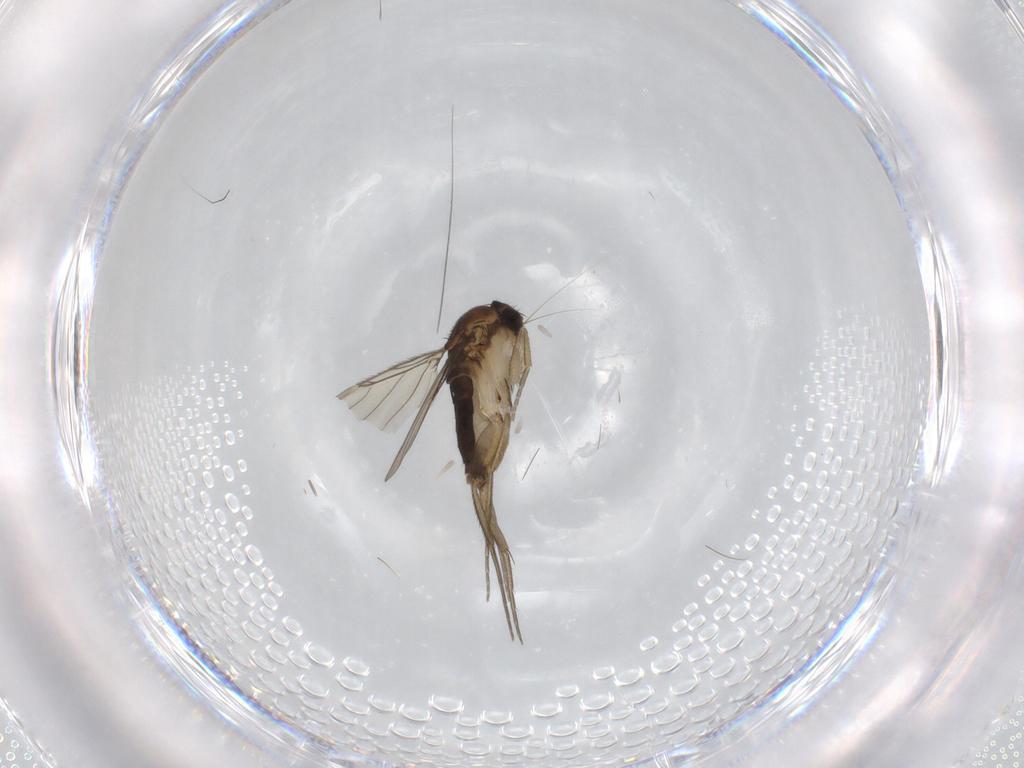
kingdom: Animalia
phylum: Arthropoda
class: Insecta
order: Diptera
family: Phoridae
